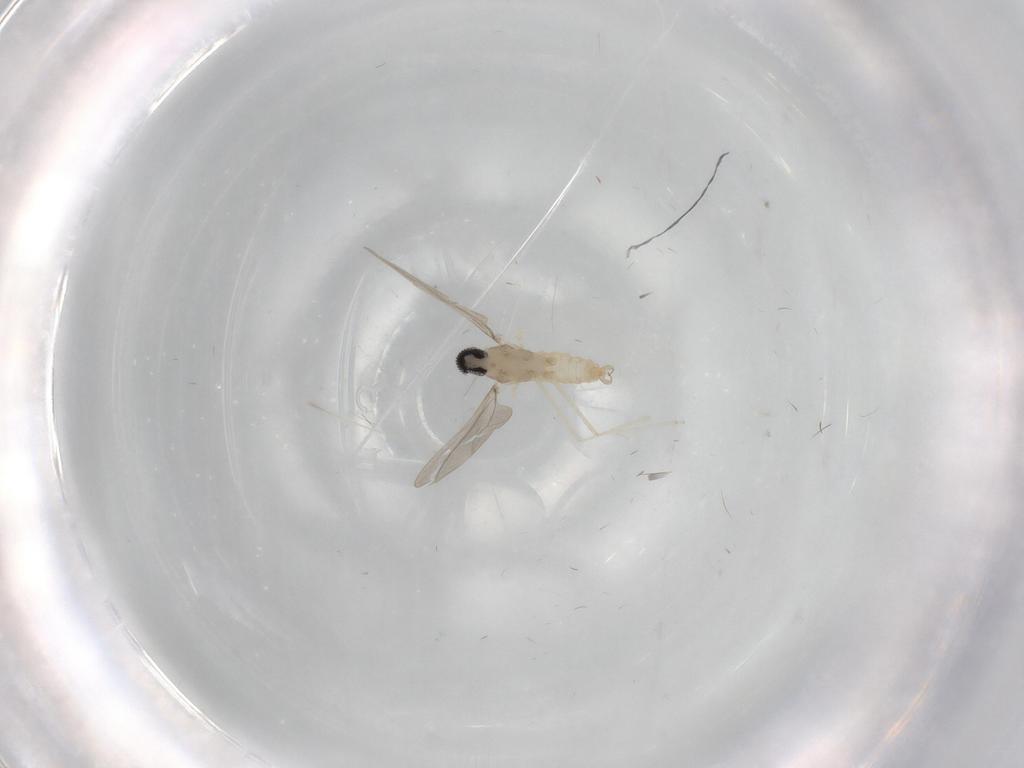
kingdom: Animalia
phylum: Arthropoda
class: Insecta
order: Diptera
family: Cecidomyiidae
